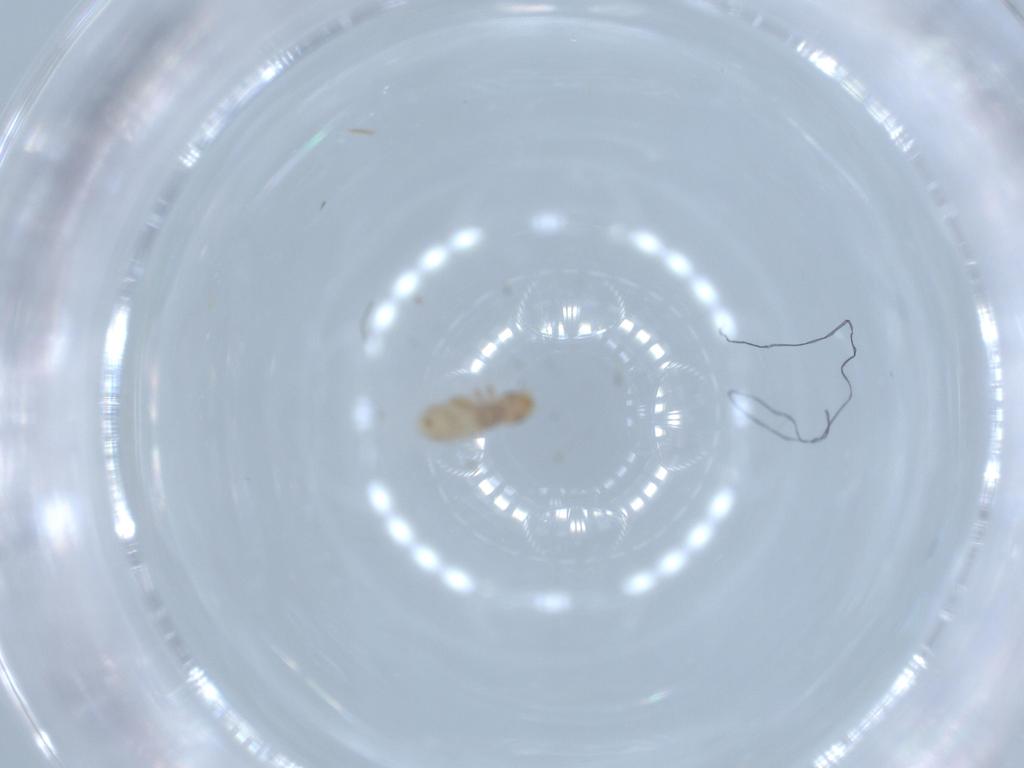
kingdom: Animalia
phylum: Arthropoda
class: Insecta
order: Psocodea
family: Liposcelididae
